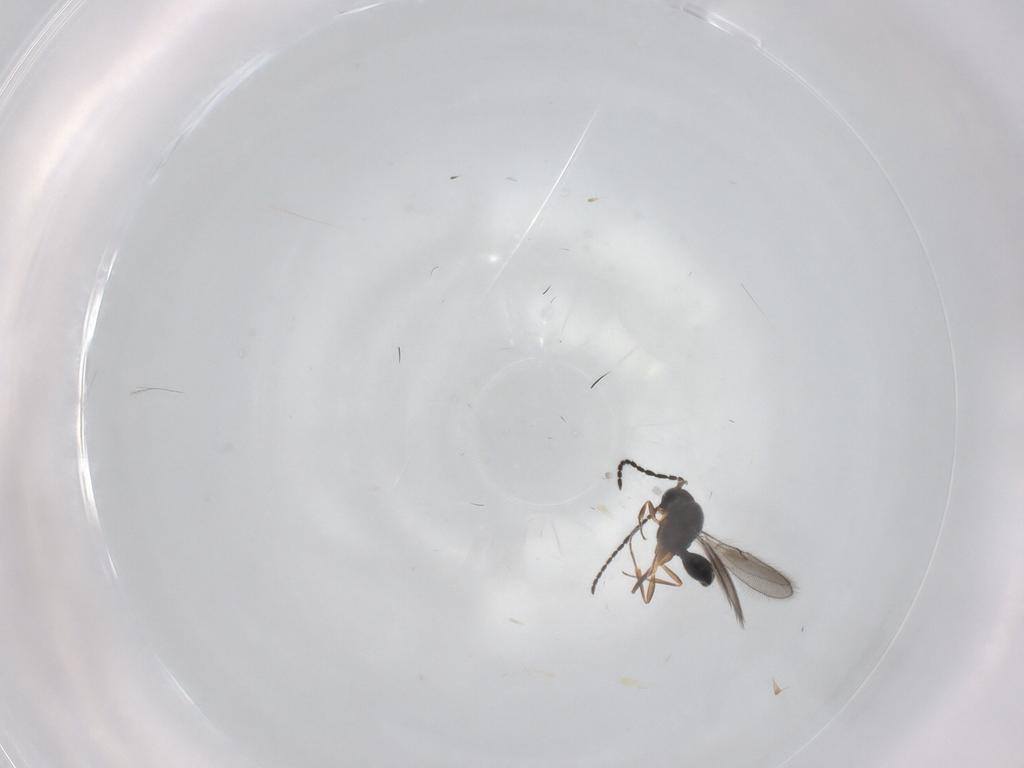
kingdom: Animalia
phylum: Arthropoda
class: Insecta
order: Hymenoptera
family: Scelionidae
